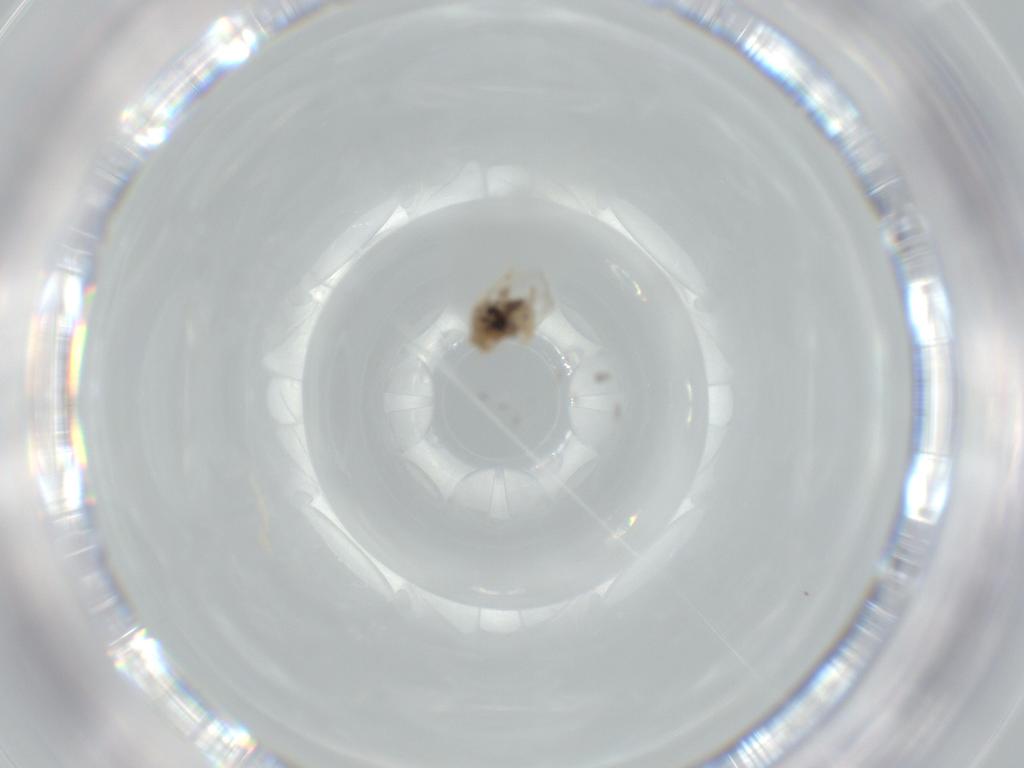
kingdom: Animalia
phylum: Arthropoda
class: Insecta
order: Diptera
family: Cecidomyiidae
